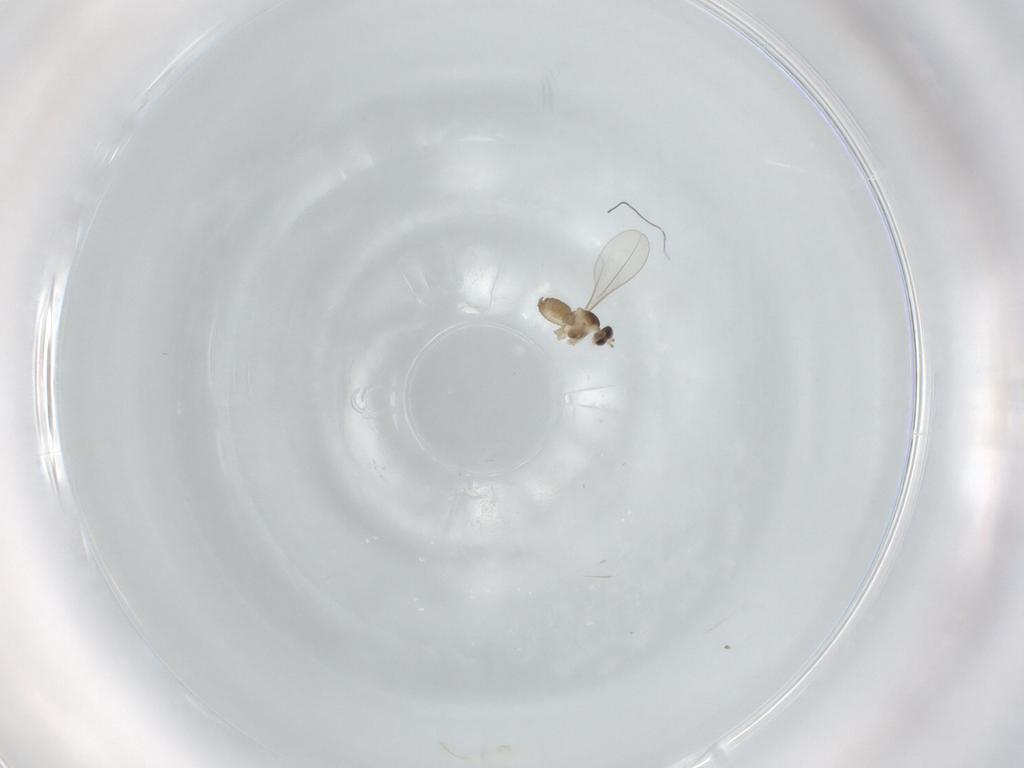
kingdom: Animalia
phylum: Arthropoda
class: Insecta
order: Diptera
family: Cecidomyiidae
